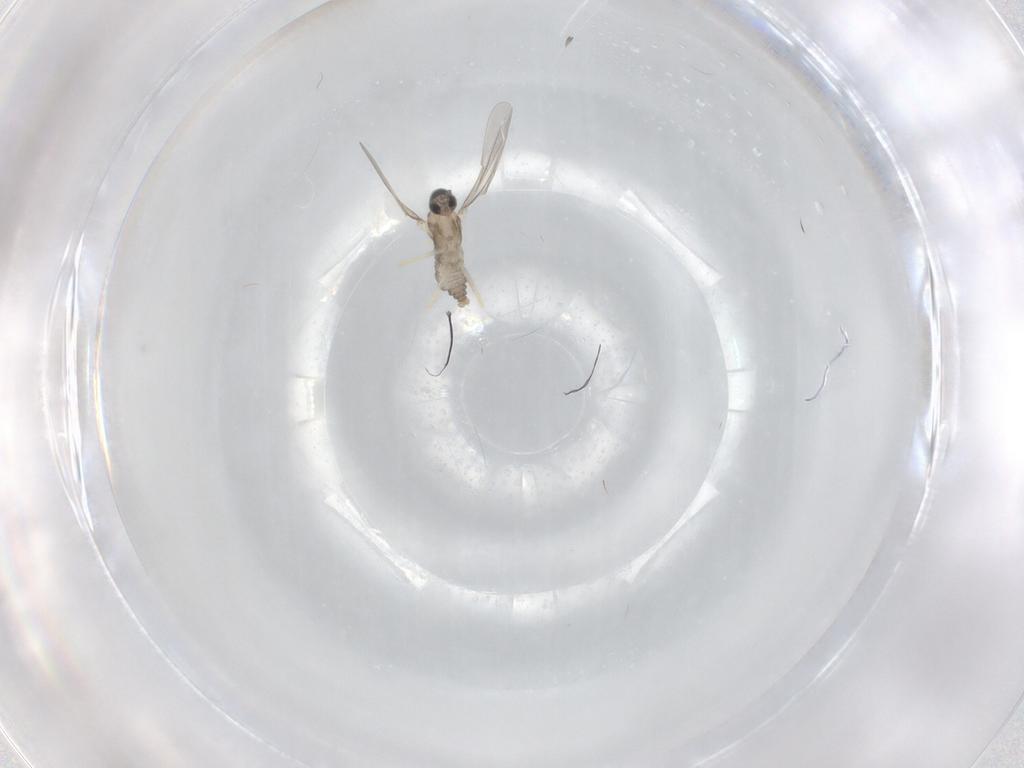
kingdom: Animalia
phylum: Arthropoda
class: Insecta
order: Diptera
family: Cecidomyiidae
